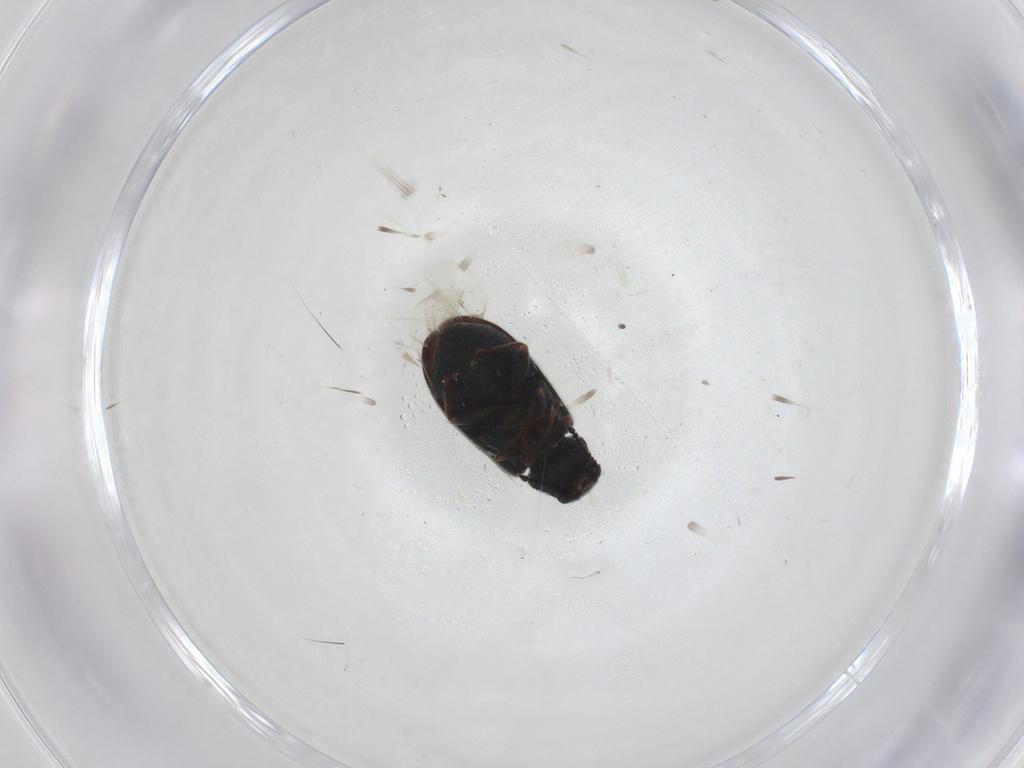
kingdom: Animalia
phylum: Arthropoda
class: Insecta
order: Coleoptera
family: Melyridae
